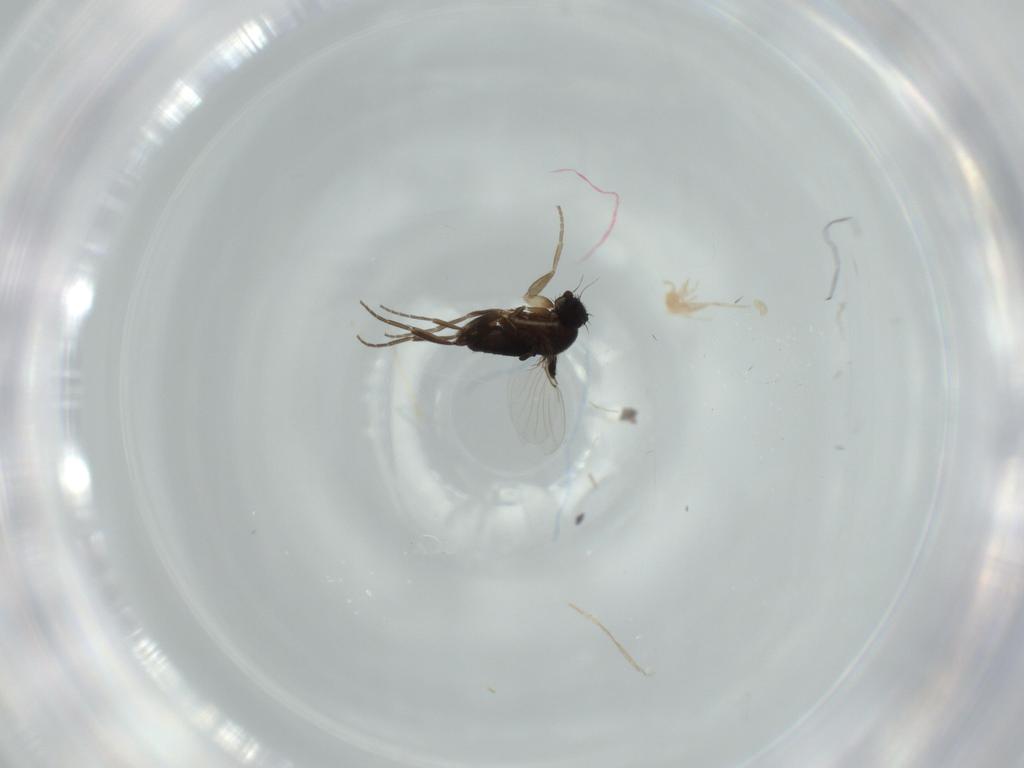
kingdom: Animalia
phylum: Arthropoda
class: Insecta
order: Diptera
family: Phoridae
